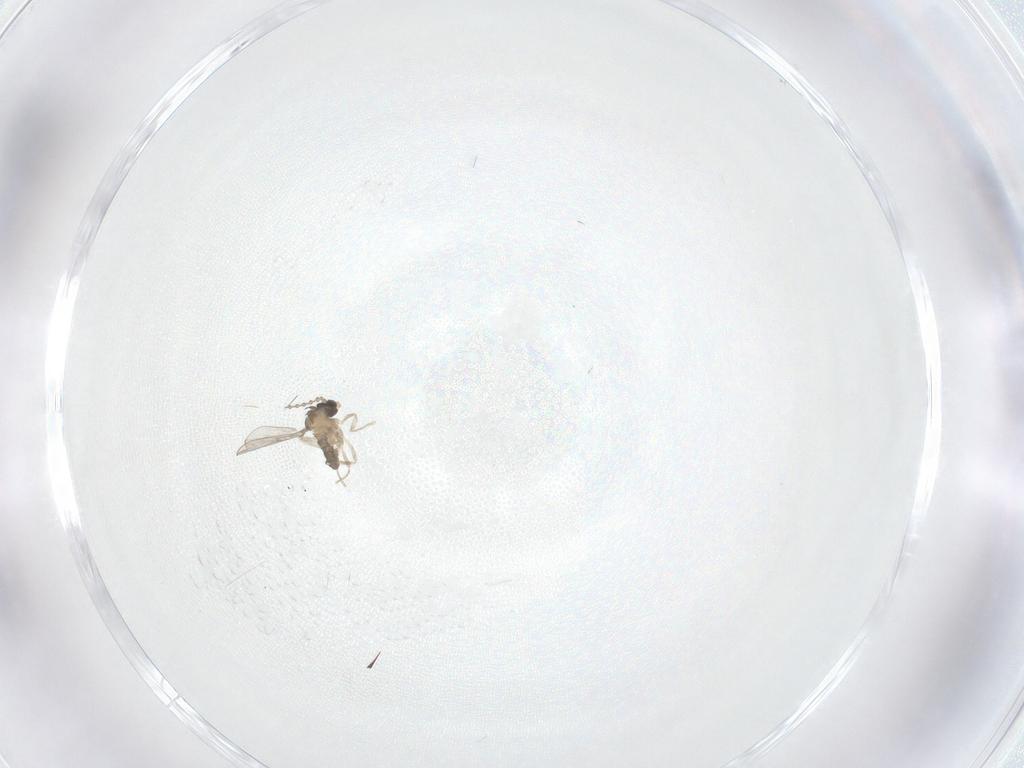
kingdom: Animalia
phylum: Arthropoda
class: Insecta
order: Diptera
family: Cecidomyiidae
